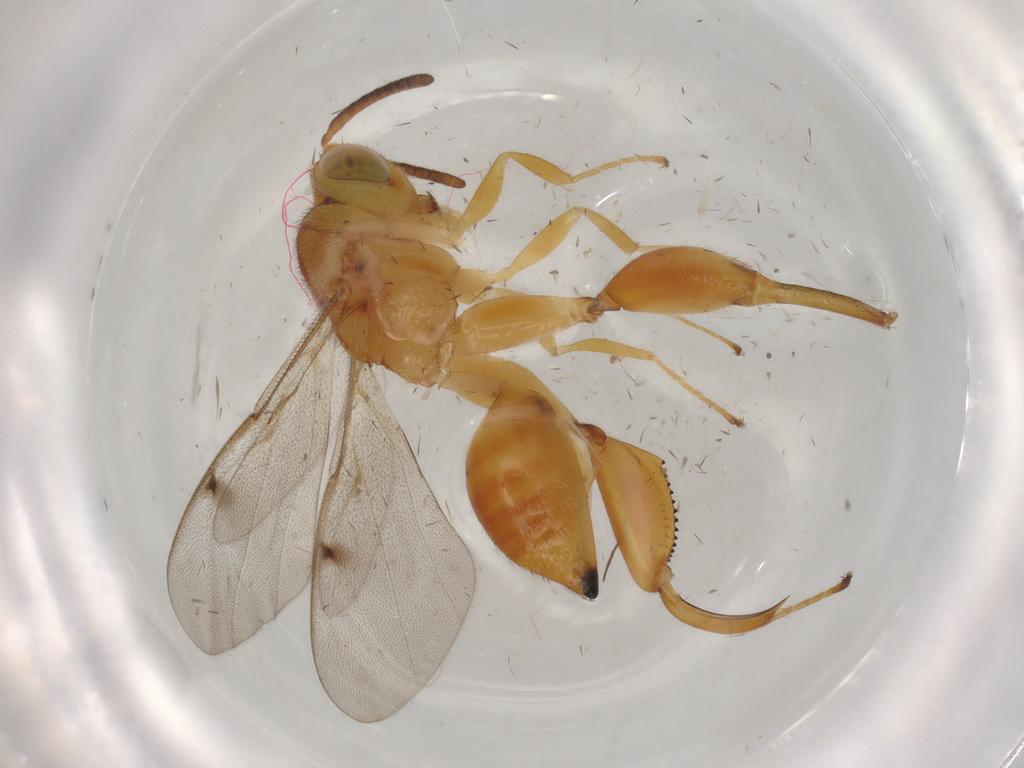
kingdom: Animalia
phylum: Arthropoda
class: Insecta
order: Hymenoptera
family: Chalcididae
